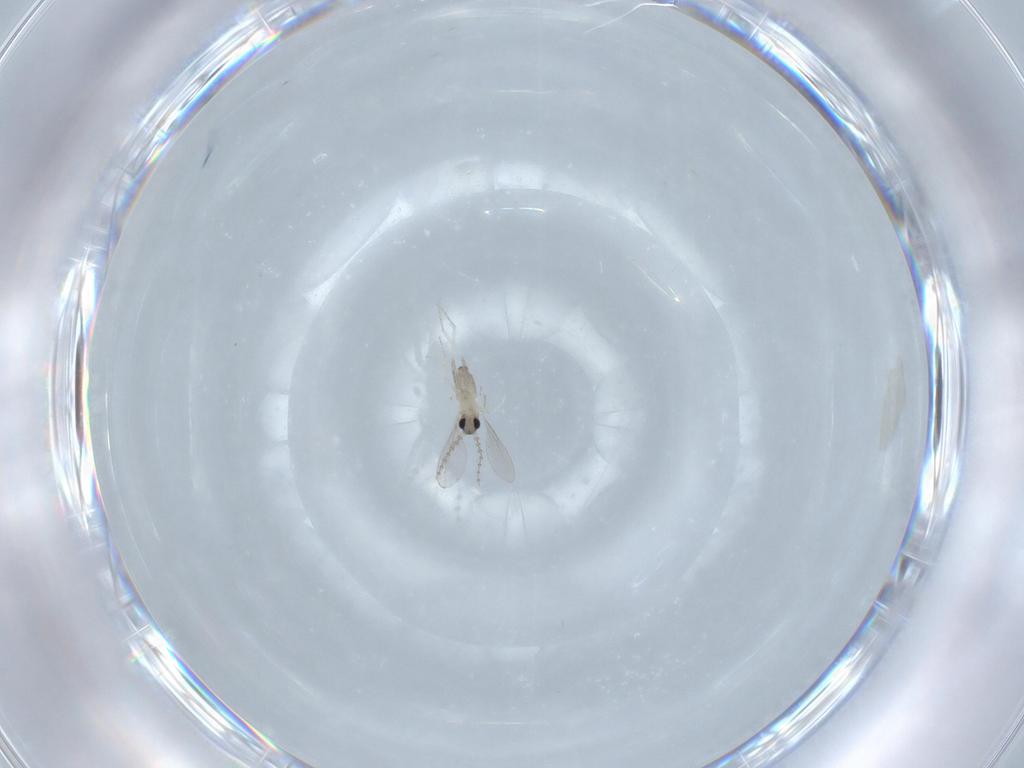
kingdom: Animalia
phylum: Arthropoda
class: Insecta
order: Diptera
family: Cecidomyiidae
